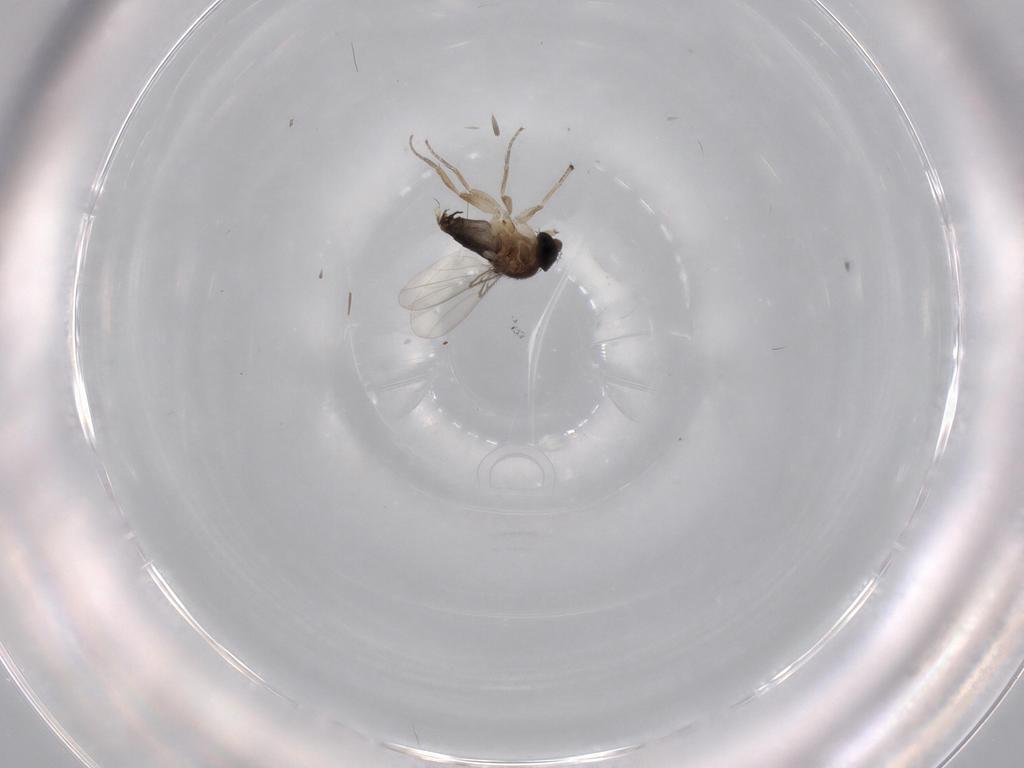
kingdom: Animalia
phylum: Arthropoda
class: Insecta
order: Diptera
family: Phoridae
